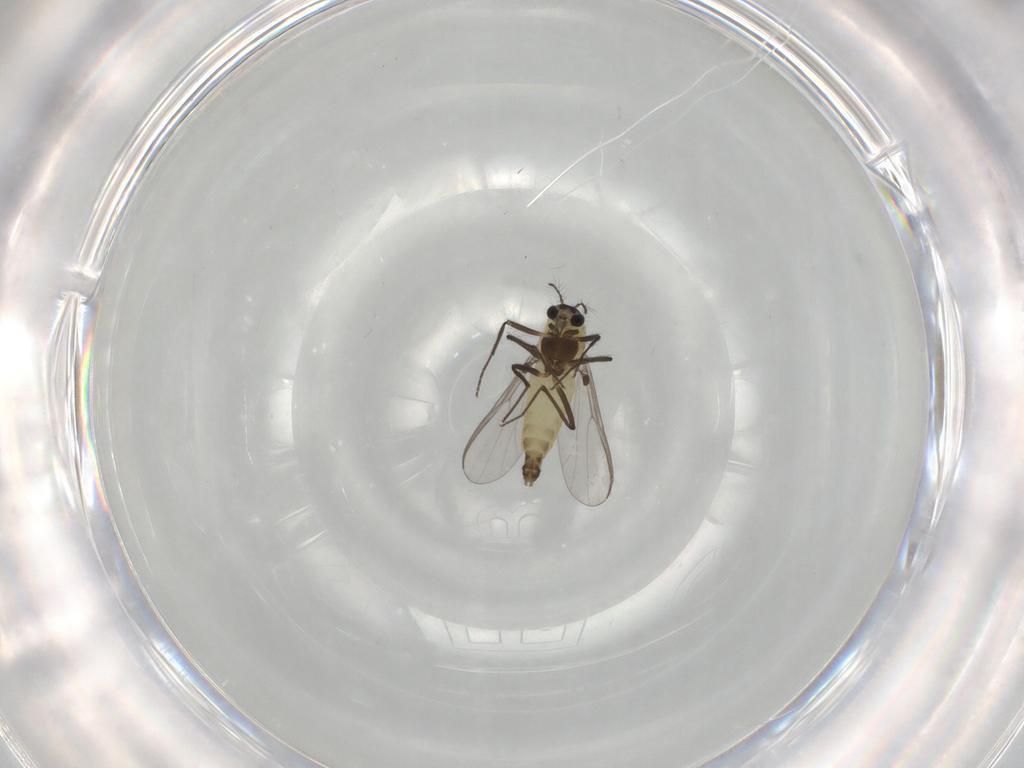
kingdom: Animalia
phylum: Arthropoda
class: Insecta
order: Diptera
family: Chironomidae
